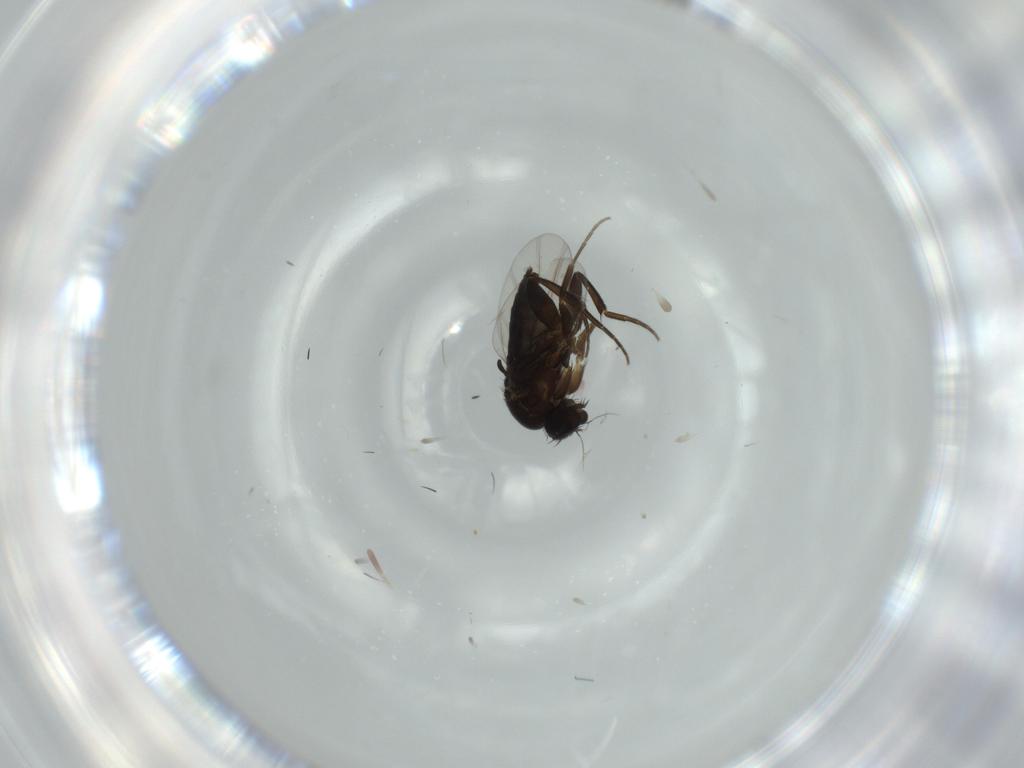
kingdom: Animalia
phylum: Arthropoda
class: Insecta
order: Diptera
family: Phoridae
